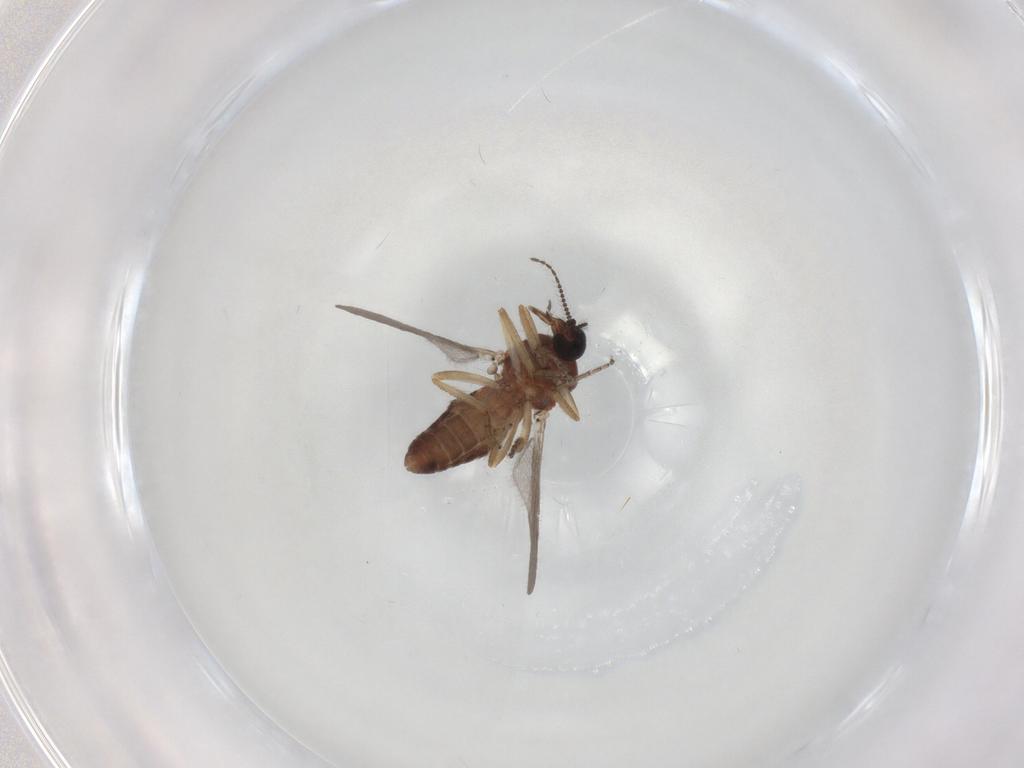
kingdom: Animalia
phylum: Arthropoda
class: Insecta
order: Diptera
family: Ceratopogonidae
